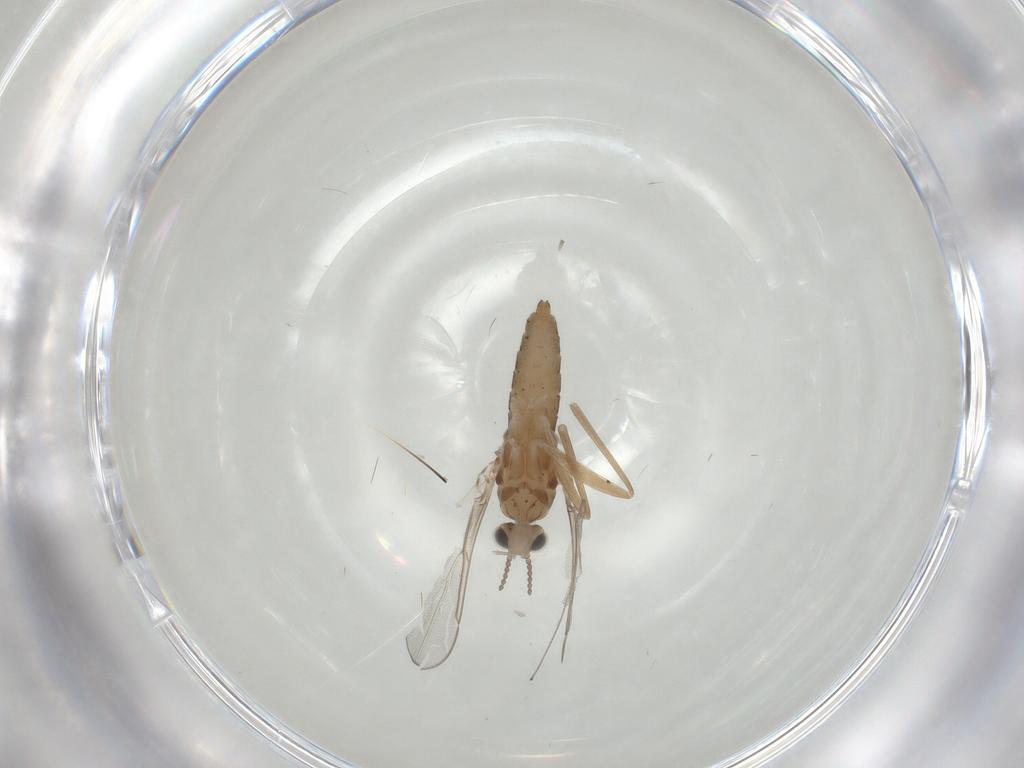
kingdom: Animalia
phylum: Arthropoda
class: Insecta
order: Diptera
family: Cecidomyiidae
